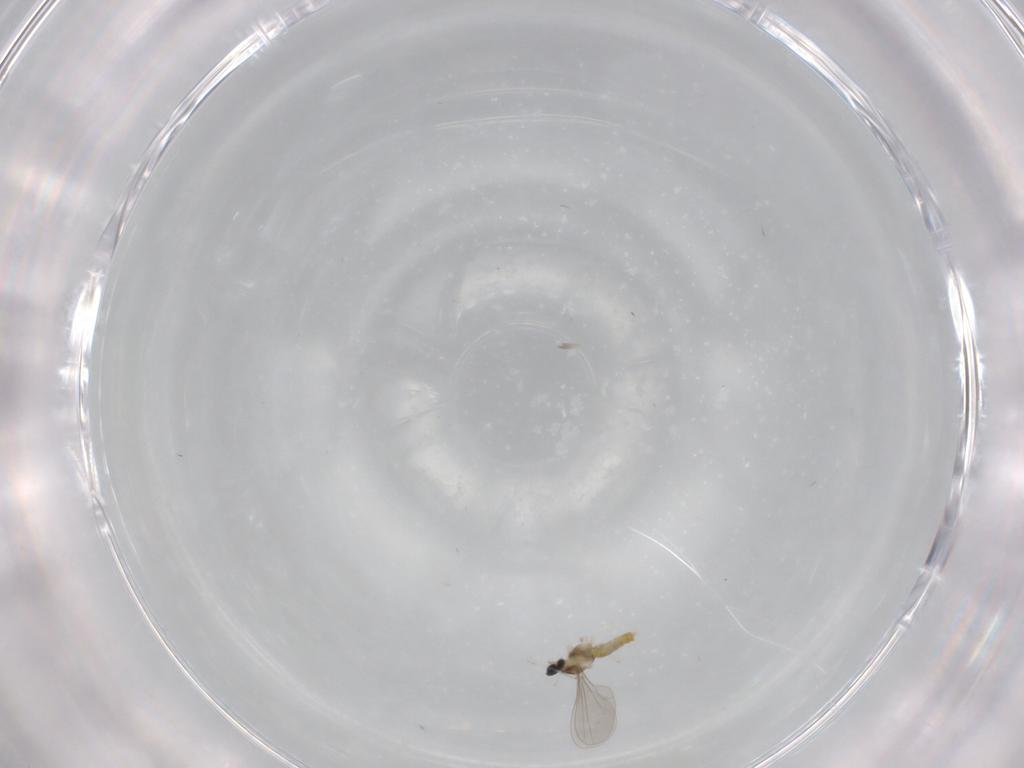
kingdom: Animalia
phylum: Arthropoda
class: Insecta
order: Diptera
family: Cecidomyiidae
